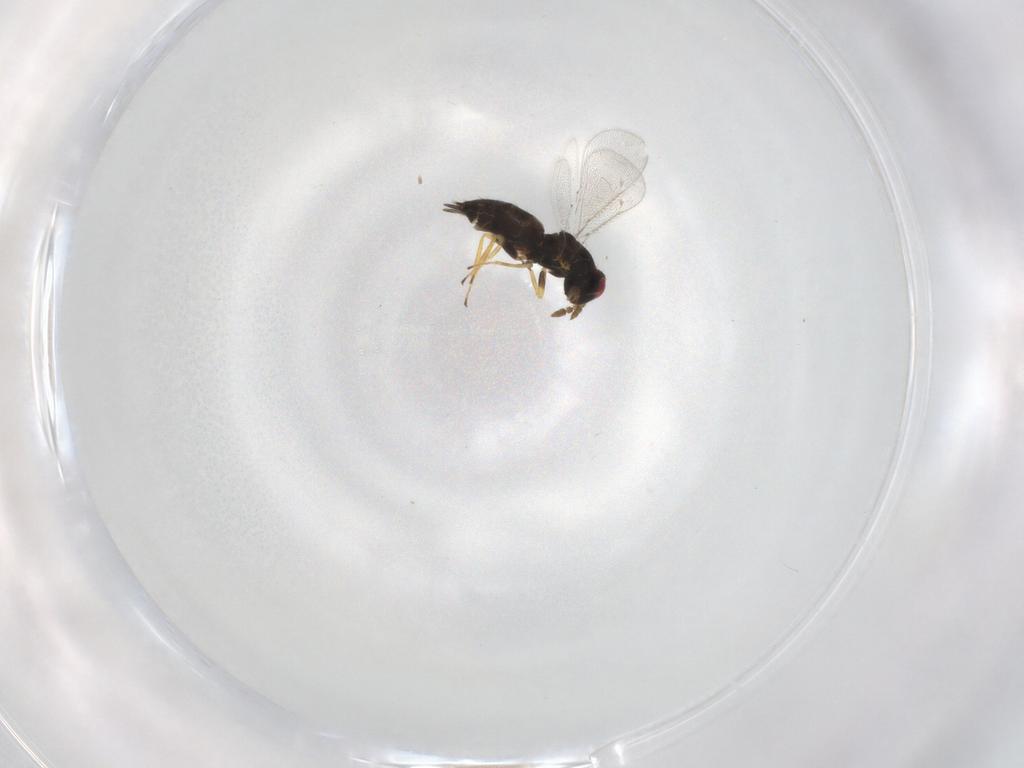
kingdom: Animalia
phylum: Arthropoda
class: Insecta
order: Hymenoptera
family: Eulophidae
